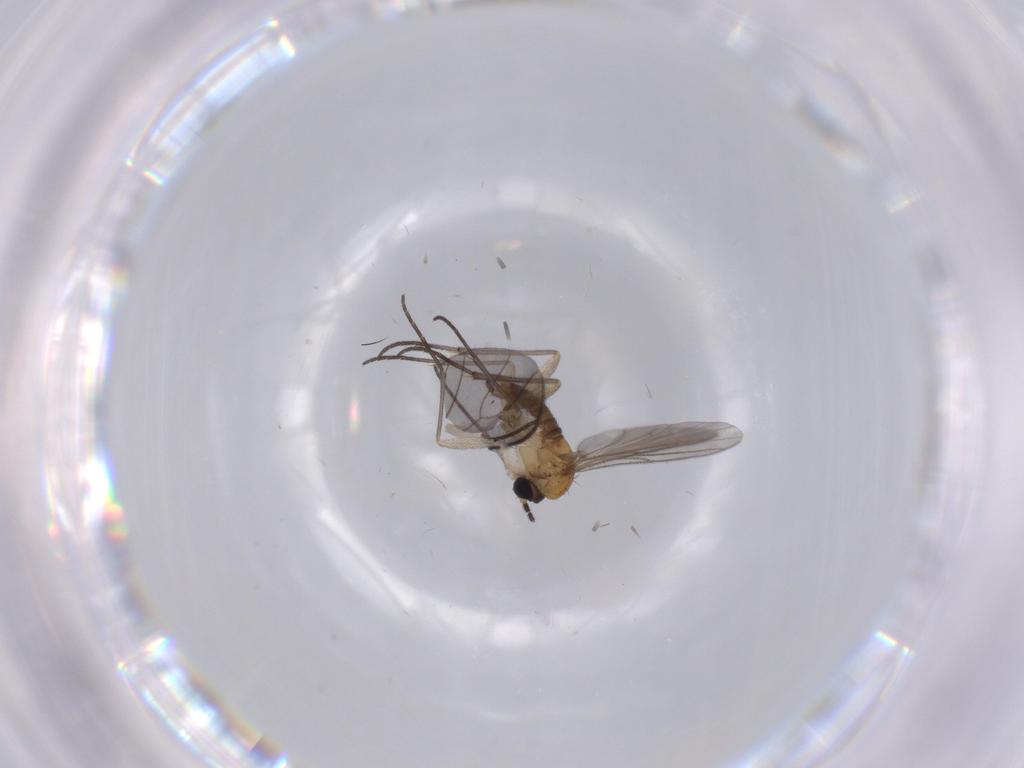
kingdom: Animalia
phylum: Arthropoda
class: Insecta
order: Diptera
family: Sciaridae
